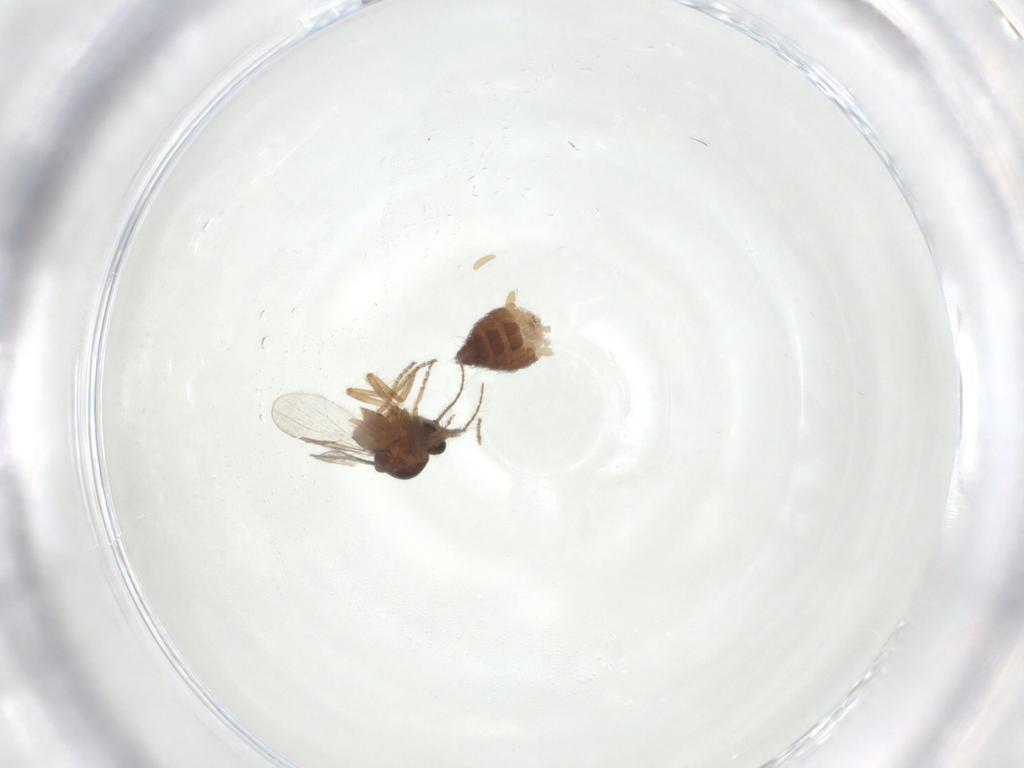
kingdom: Animalia
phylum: Arthropoda
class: Insecta
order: Diptera
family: Ceratopogonidae
